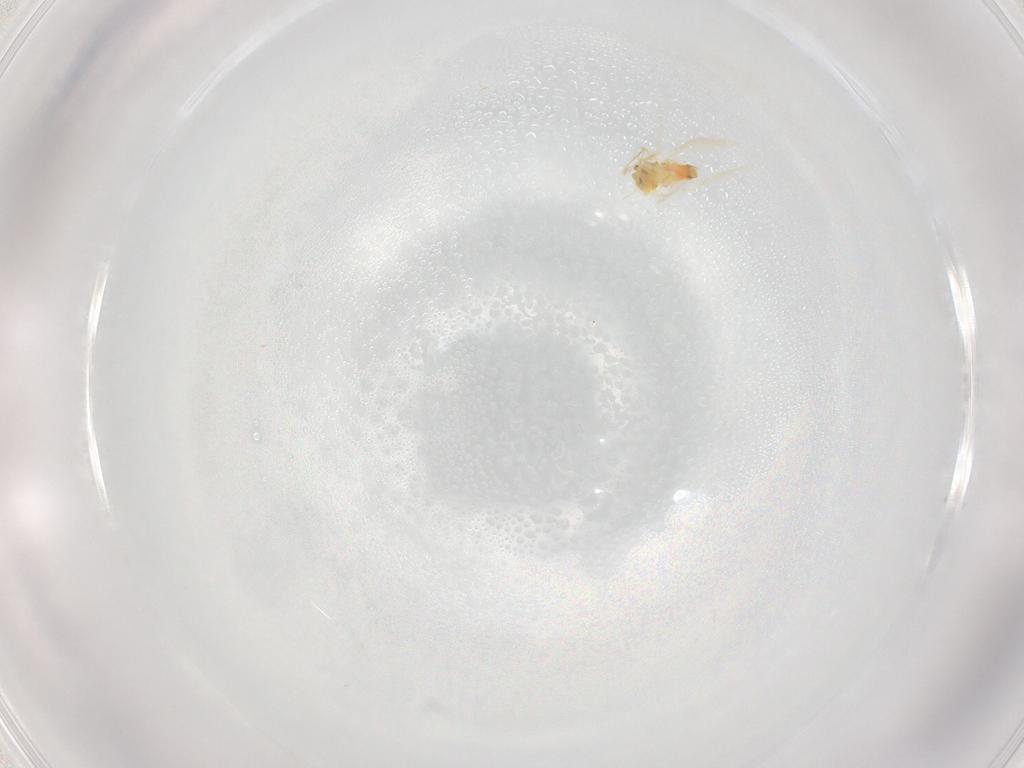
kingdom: Animalia
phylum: Arthropoda
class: Insecta
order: Hemiptera
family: Aleyrodidae
